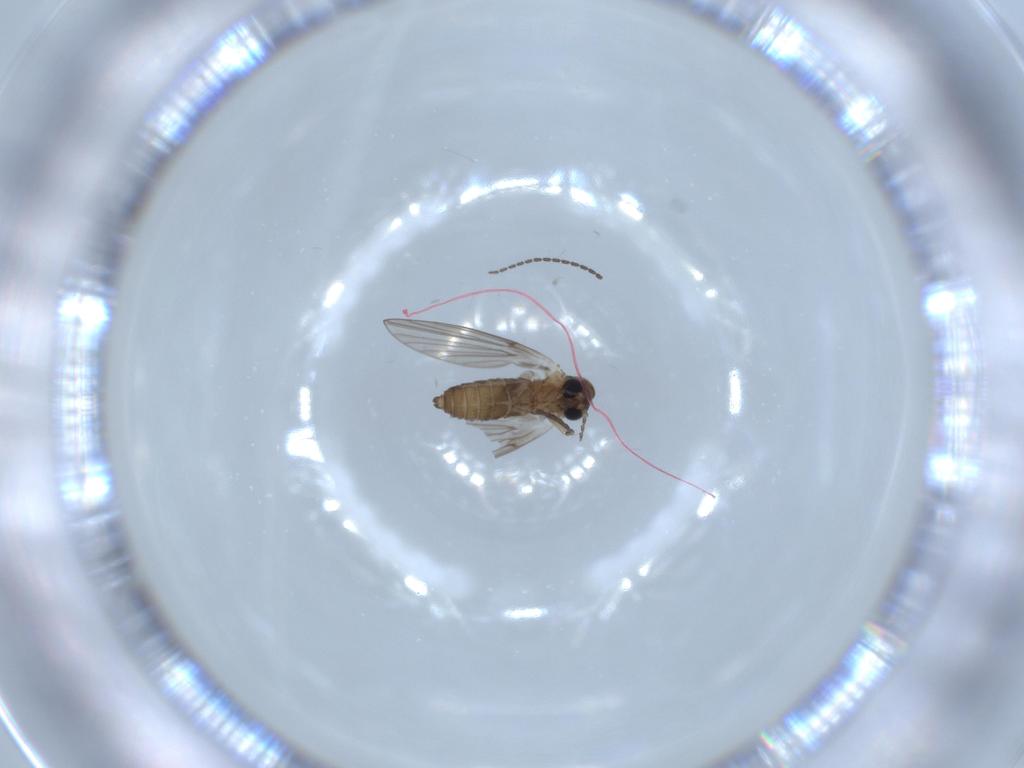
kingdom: Animalia
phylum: Arthropoda
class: Insecta
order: Diptera
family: Sciaridae
